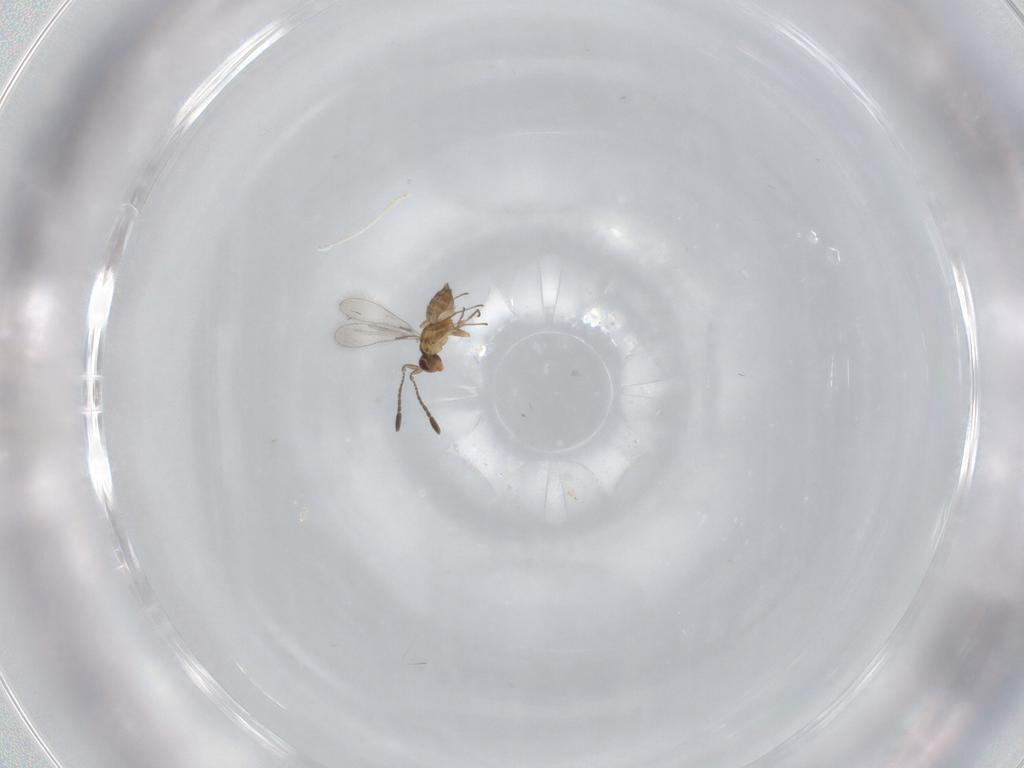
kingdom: Animalia
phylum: Arthropoda
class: Insecta
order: Hymenoptera
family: Mymaridae
